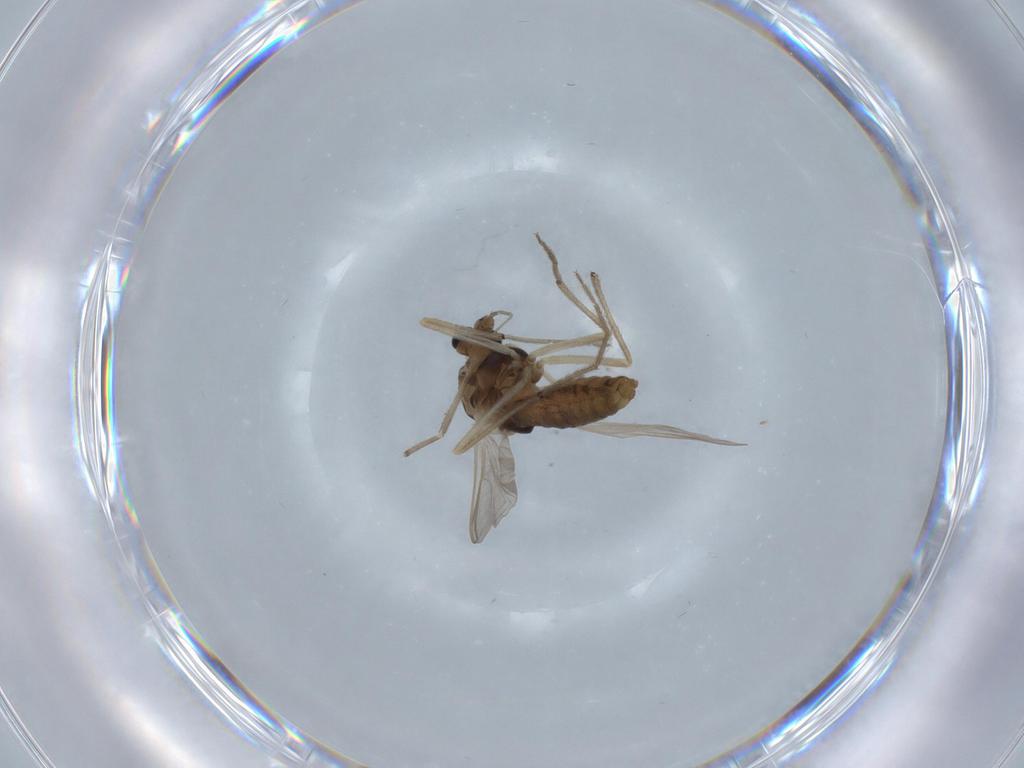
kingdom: Animalia
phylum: Arthropoda
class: Insecta
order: Diptera
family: Chironomidae
